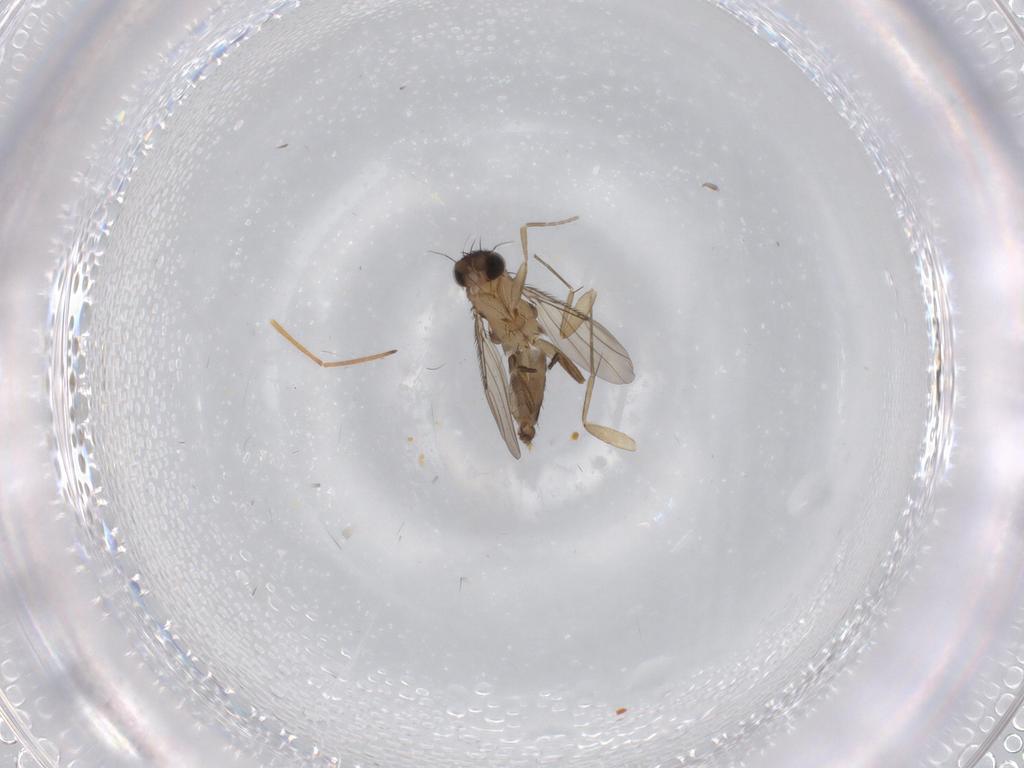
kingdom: Animalia
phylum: Arthropoda
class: Insecta
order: Diptera
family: Phoridae
